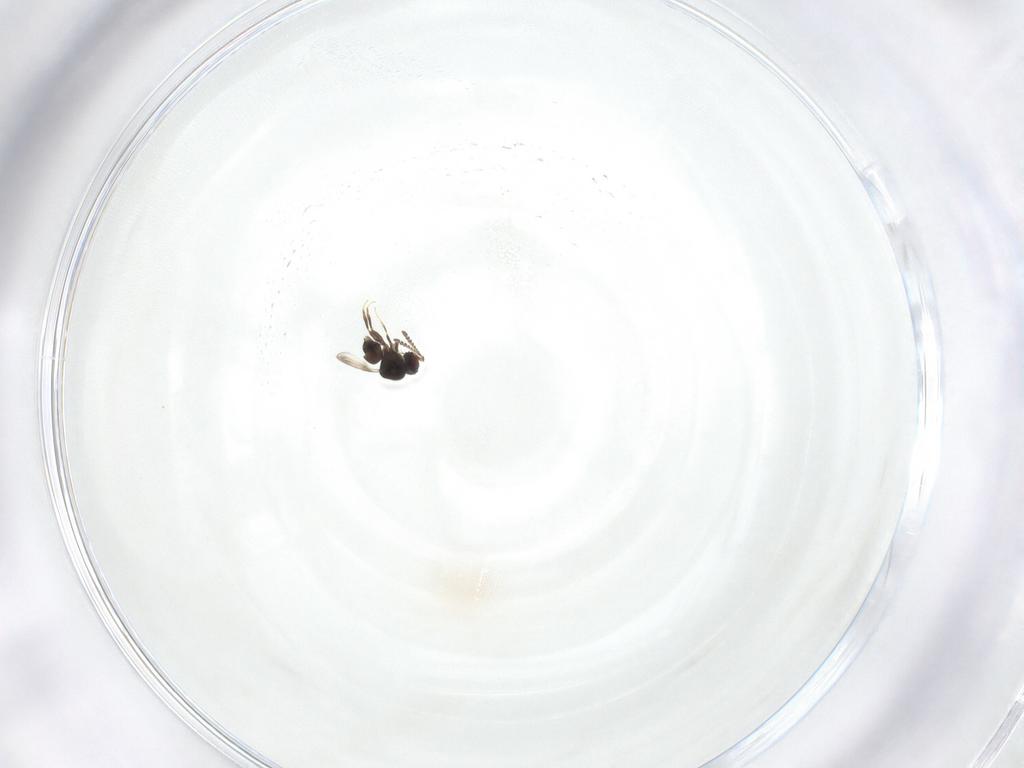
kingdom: Animalia
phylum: Arthropoda
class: Insecta
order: Hymenoptera
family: Ceraphronidae
